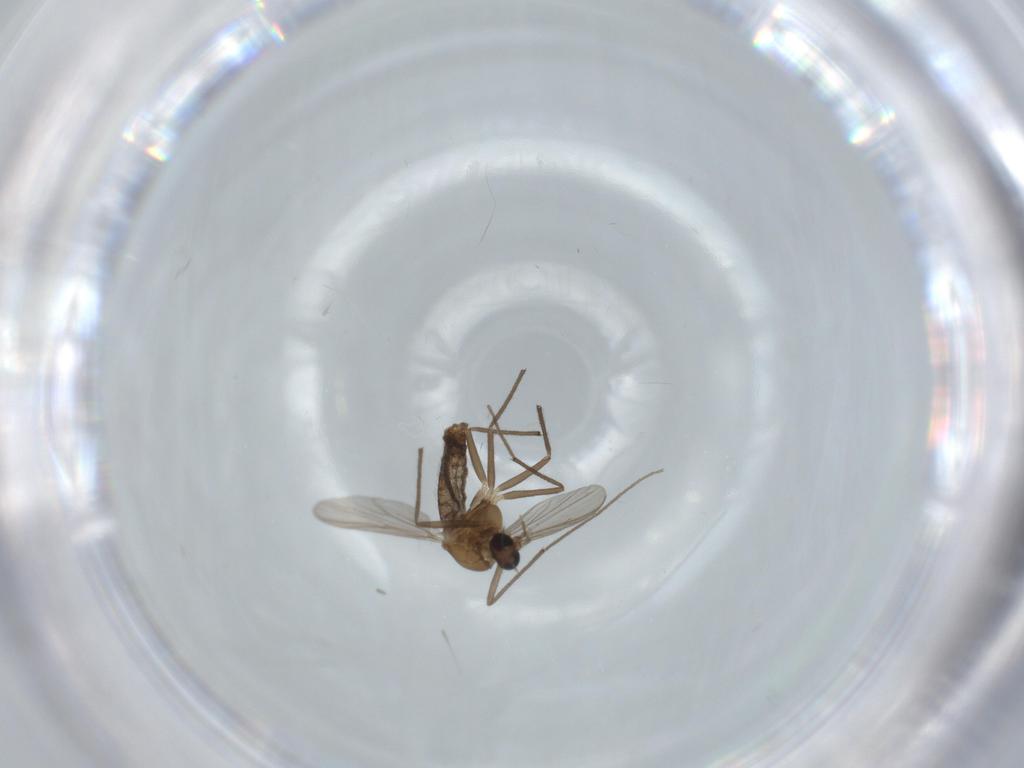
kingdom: Animalia
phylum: Arthropoda
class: Insecta
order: Diptera
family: Chironomidae
